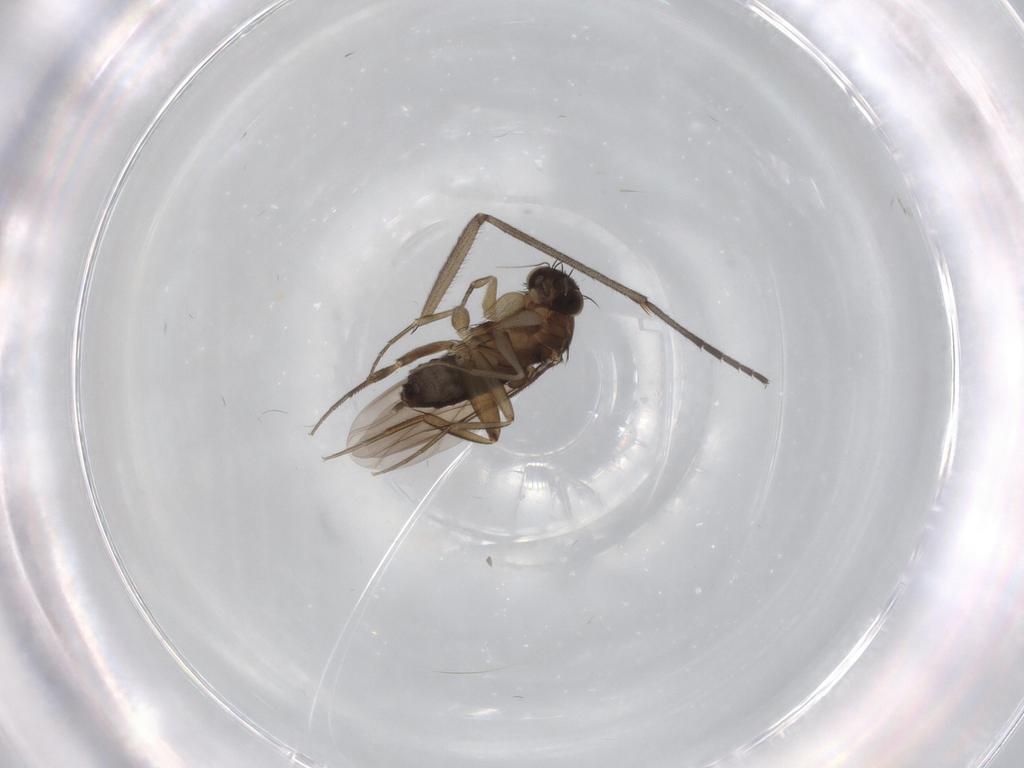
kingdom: Animalia
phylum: Arthropoda
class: Insecta
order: Diptera
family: Sciaridae
